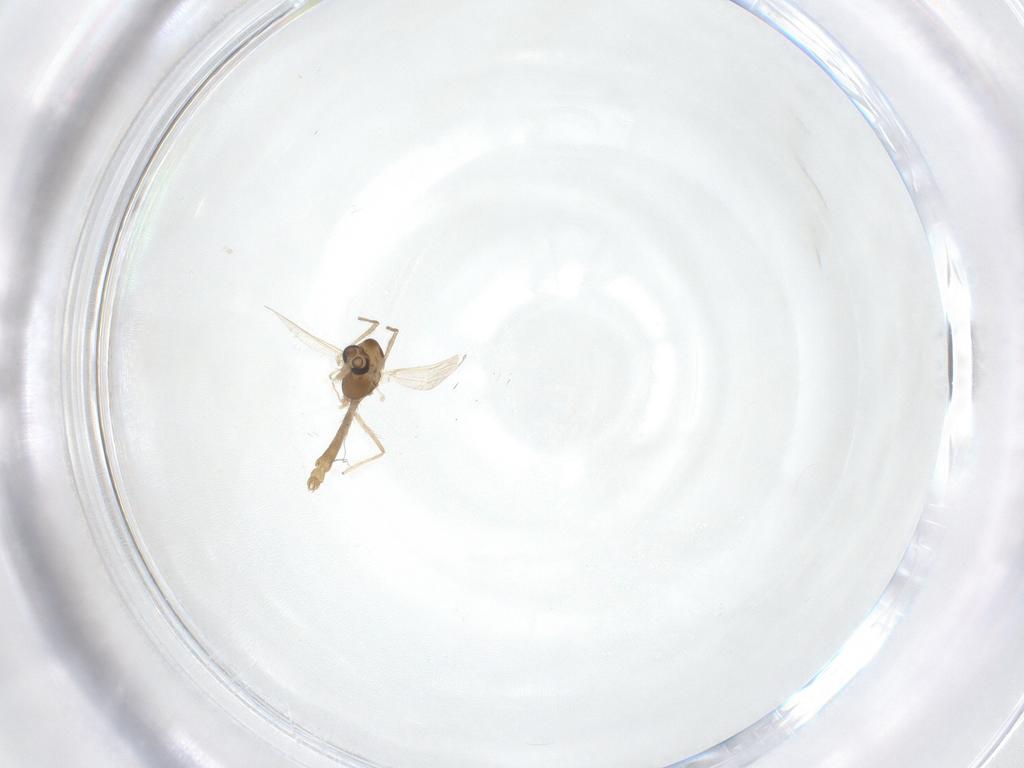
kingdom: Animalia
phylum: Arthropoda
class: Insecta
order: Diptera
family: Chironomidae
